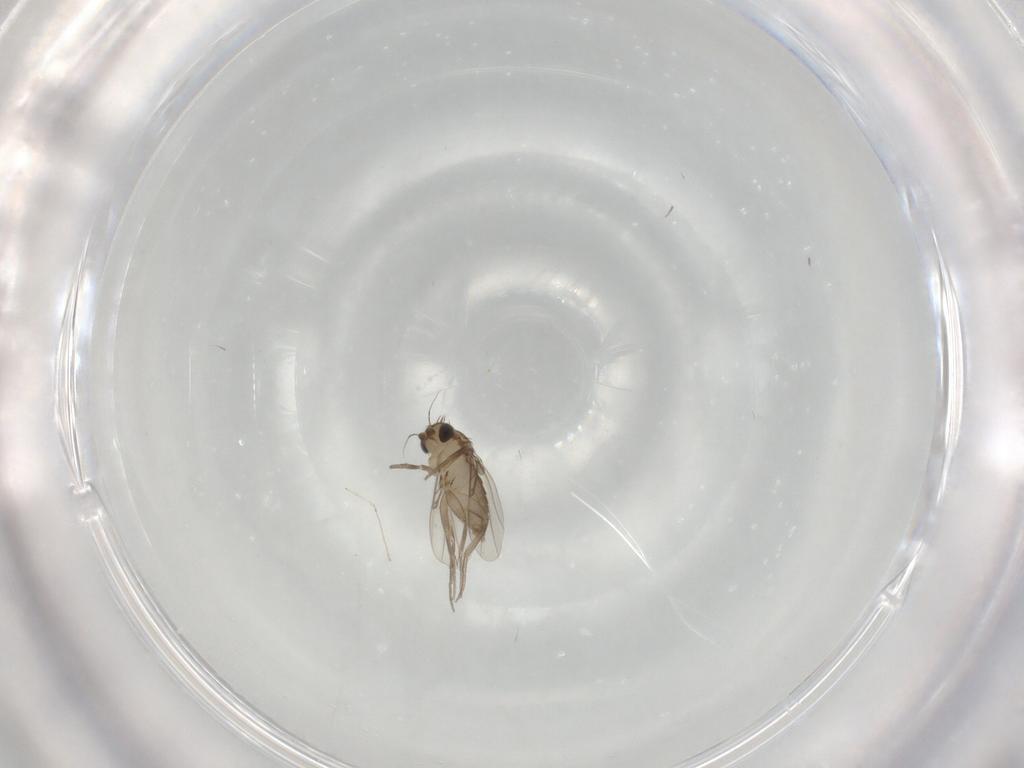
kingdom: Animalia
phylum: Arthropoda
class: Insecta
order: Diptera
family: Phoridae
